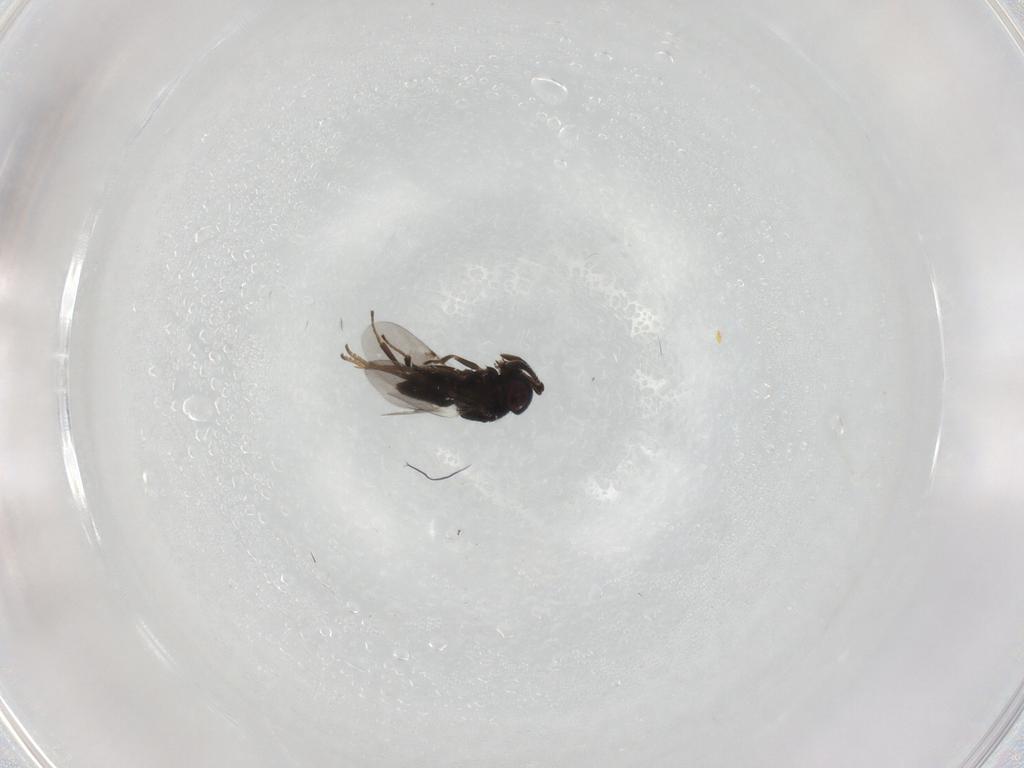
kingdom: Animalia
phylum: Arthropoda
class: Insecta
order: Hymenoptera
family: Encyrtidae
